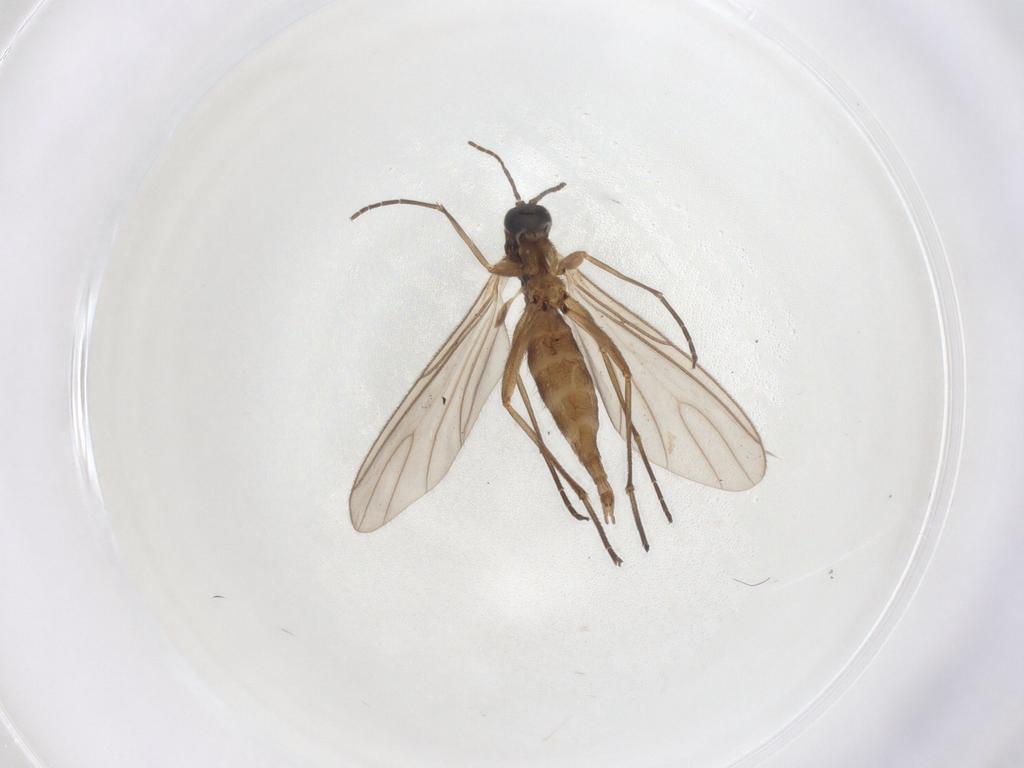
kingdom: Animalia
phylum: Arthropoda
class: Insecta
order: Diptera
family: Sciaridae
